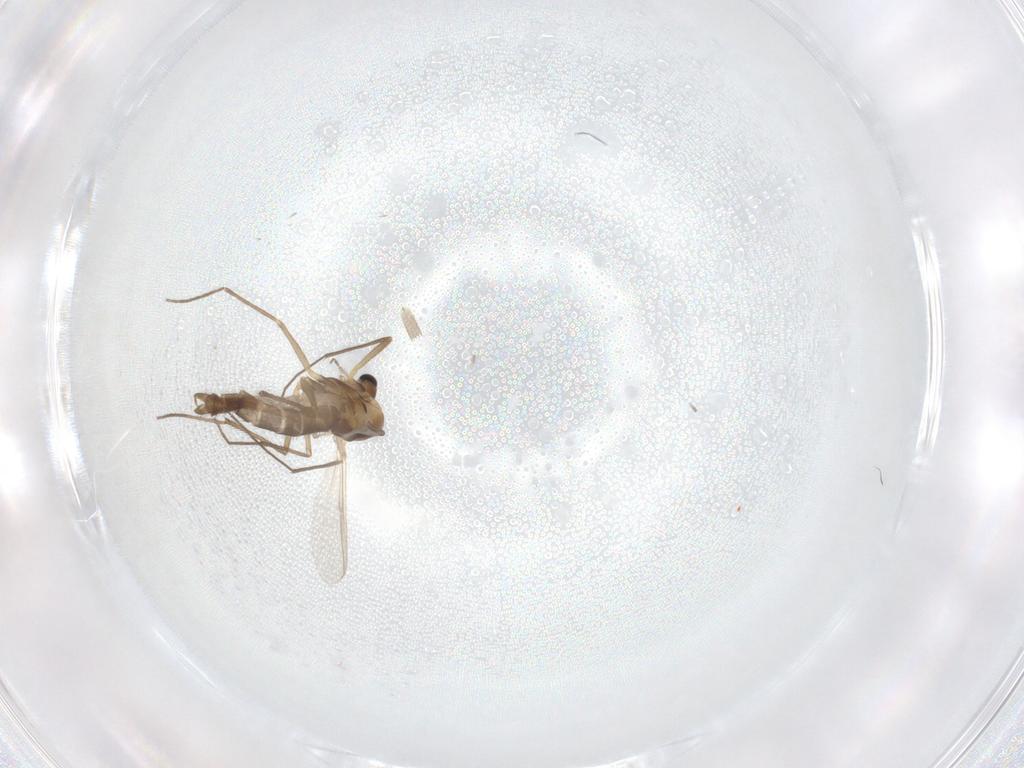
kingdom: Animalia
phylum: Arthropoda
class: Insecta
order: Diptera
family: Chironomidae
